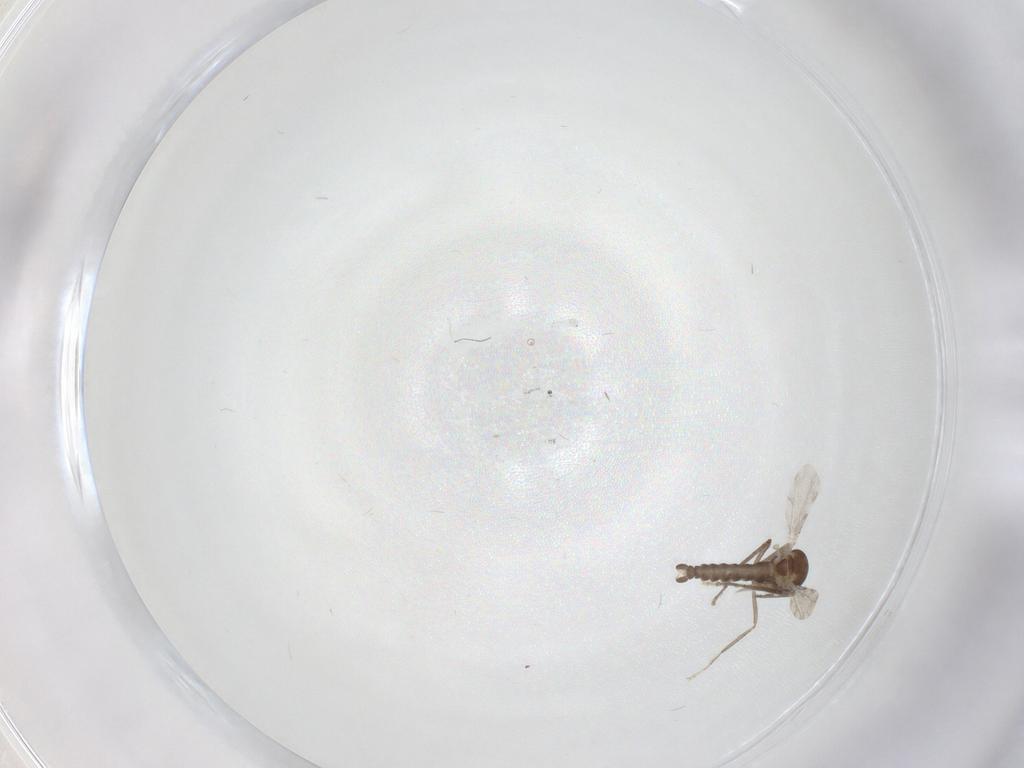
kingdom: Animalia
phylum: Arthropoda
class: Insecta
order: Diptera
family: Ceratopogonidae
